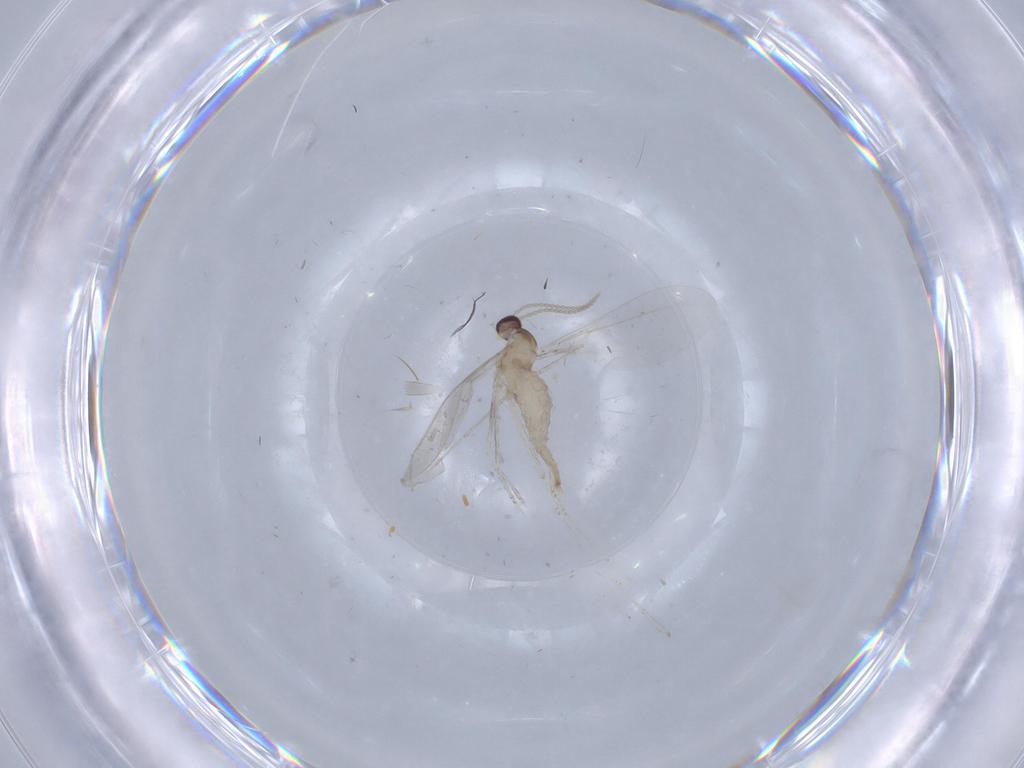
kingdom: Animalia
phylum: Arthropoda
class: Insecta
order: Diptera
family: Cecidomyiidae
